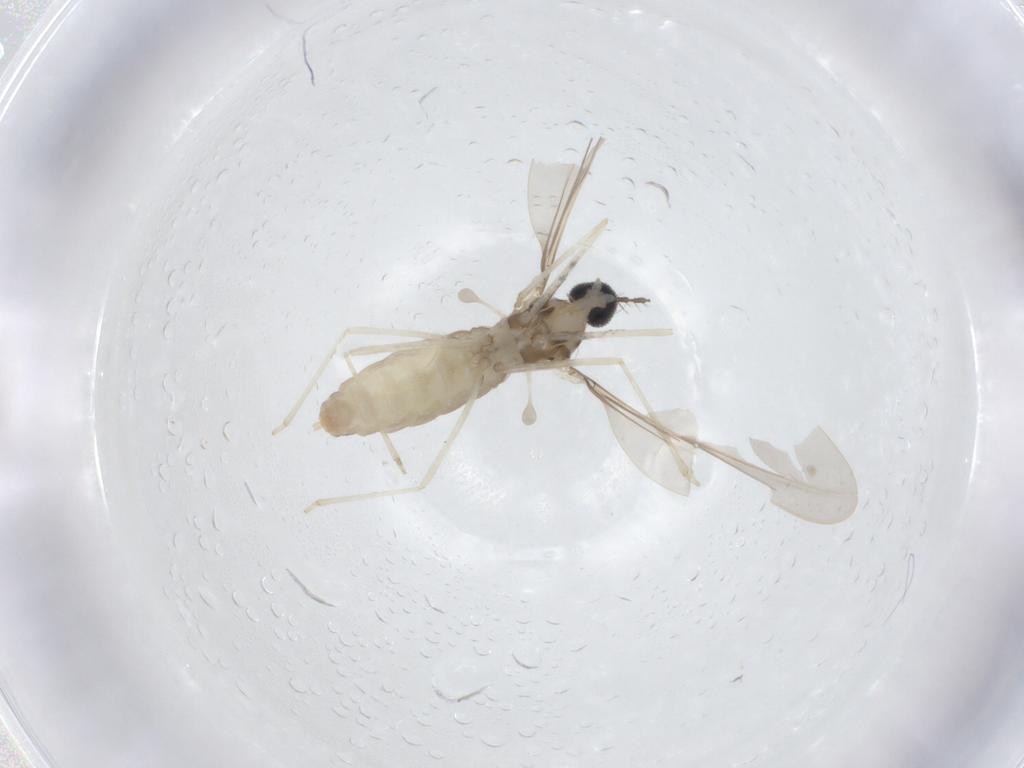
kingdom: Animalia
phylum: Arthropoda
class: Insecta
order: Diptera
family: Cecidomyiidae
